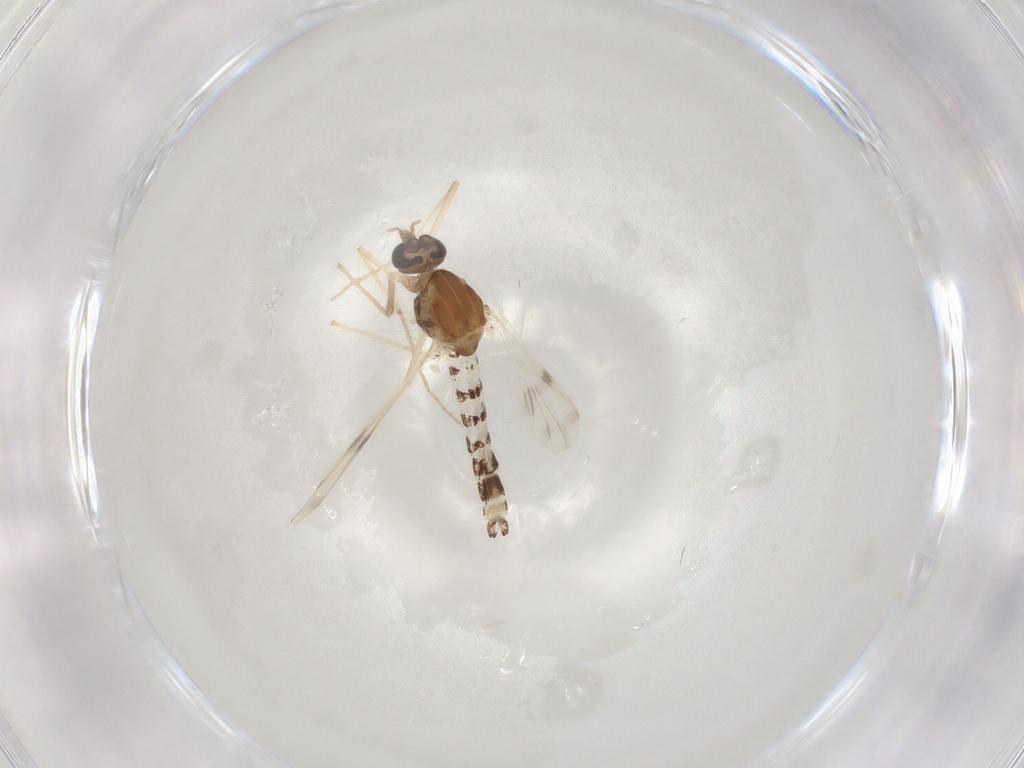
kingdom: Animalia
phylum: Arthropoda
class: Insecta
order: Diptera
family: Chironomidae
